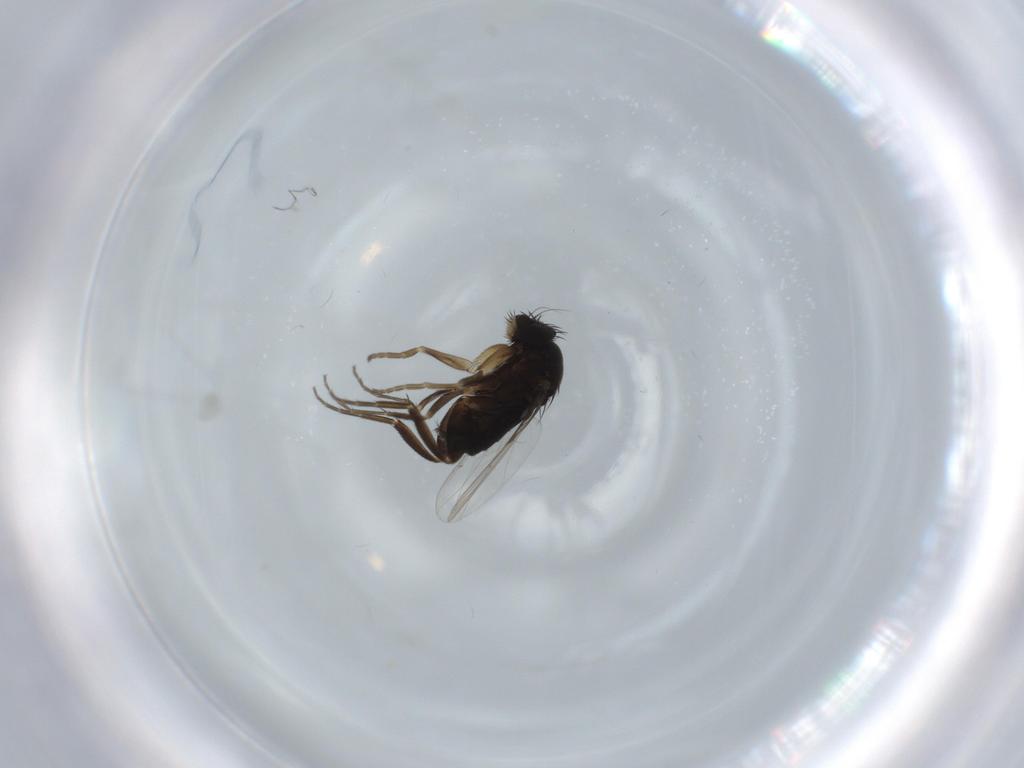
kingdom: Animalia
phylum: Arthropoda
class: Insecta
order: Diptera
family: Phoridae
